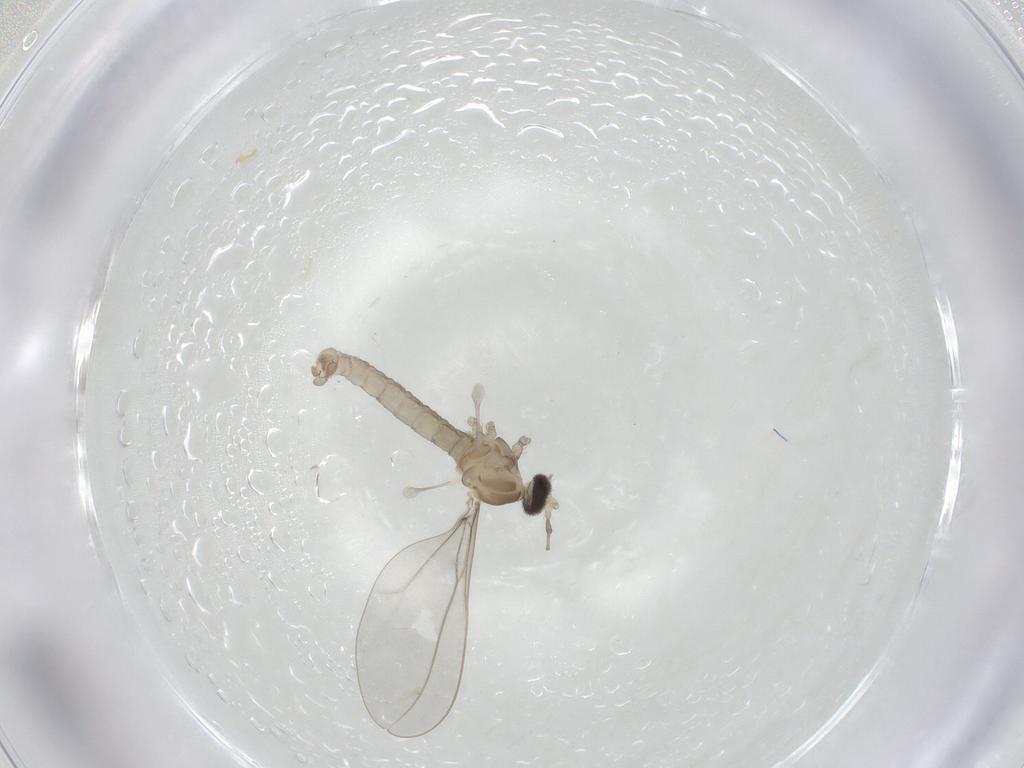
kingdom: Animalia
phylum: Arthropoda
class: Insecta
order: Diptera
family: Cecidomyiidae
